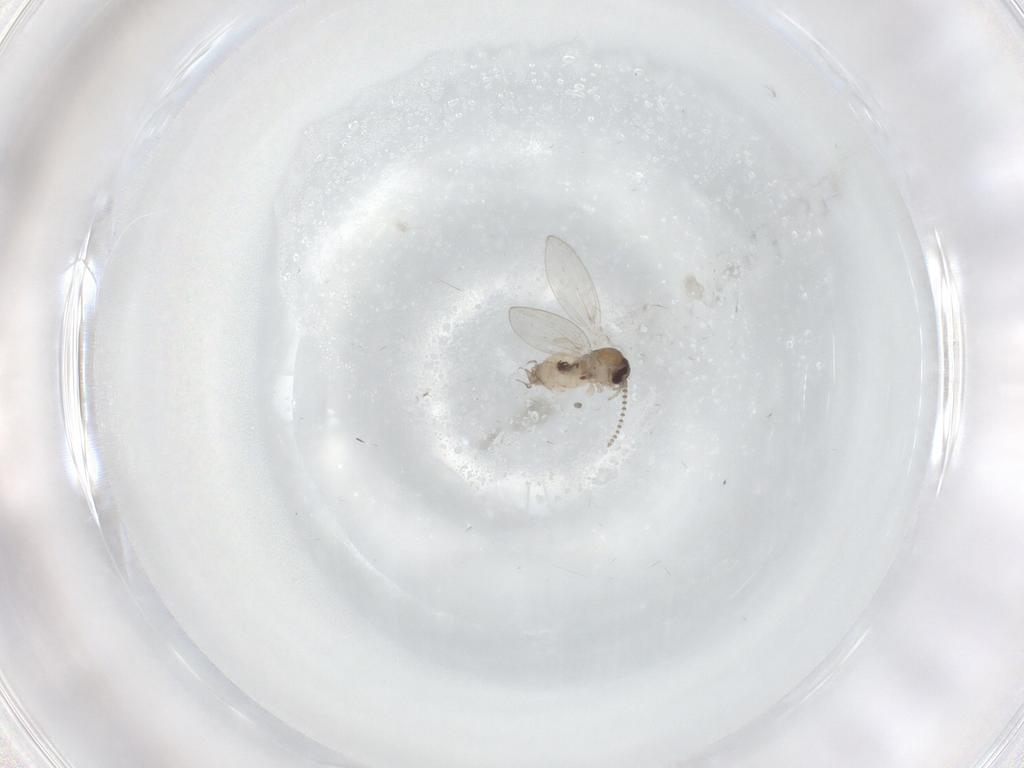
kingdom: Animalia
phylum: Arthropoda
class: Insecta
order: Diptera
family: Psychodidae
